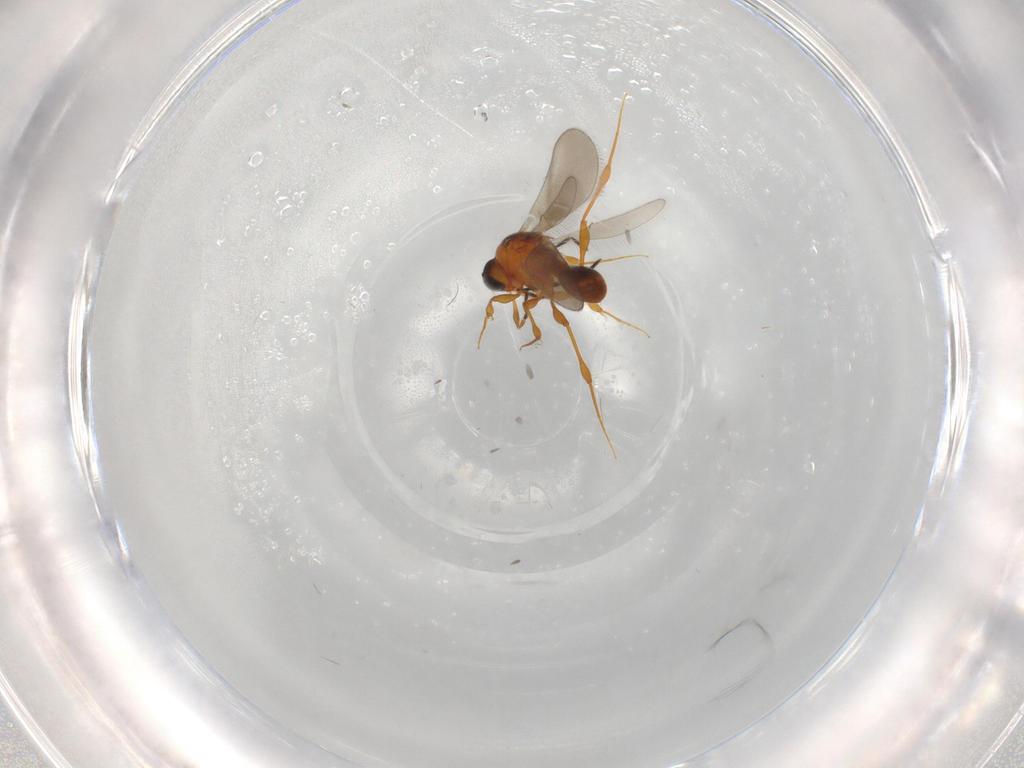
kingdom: Animalia
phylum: Arthropoda
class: Insecta
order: Hymenoptera
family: Platygastridae
